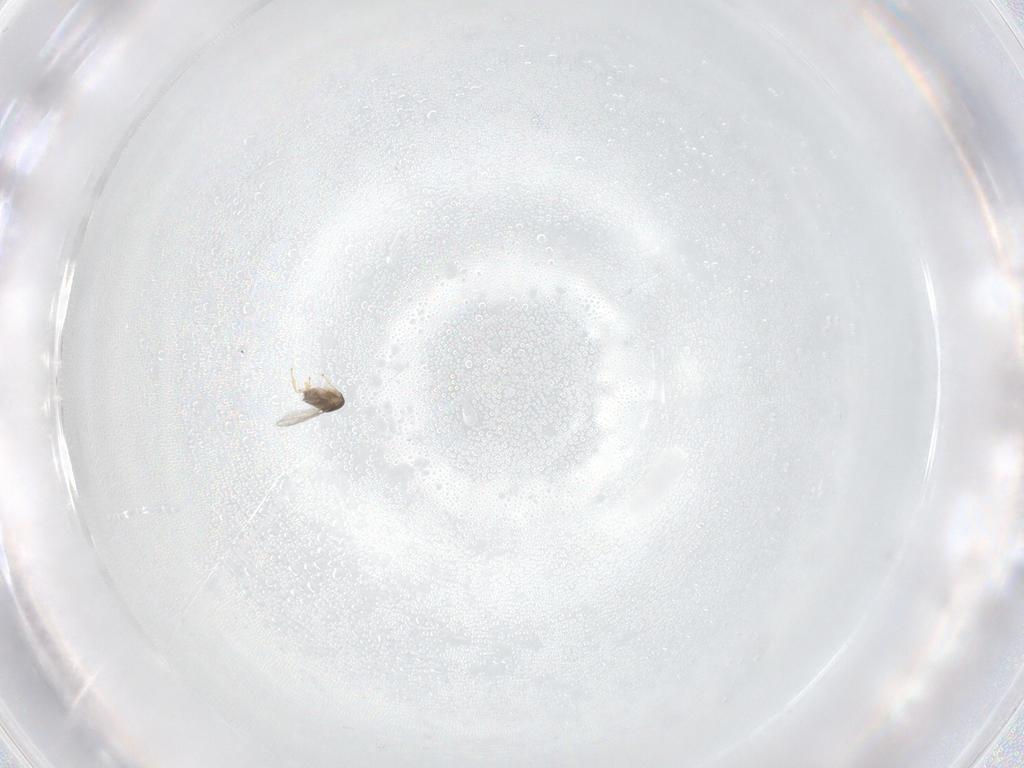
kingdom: Animalia
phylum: Arthropoda
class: Insecta
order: Hymenoptera
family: Encyrtidae
